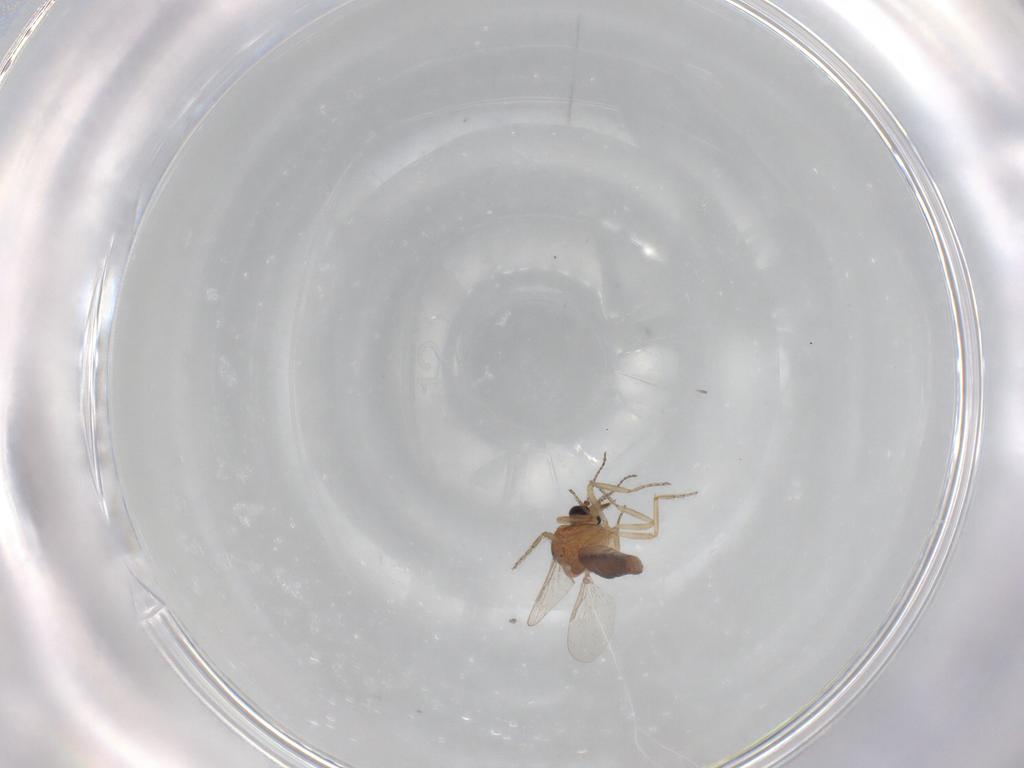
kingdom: Animalia
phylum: Arthropoda
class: Insecta
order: Diptera
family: Ceratopogonidae
